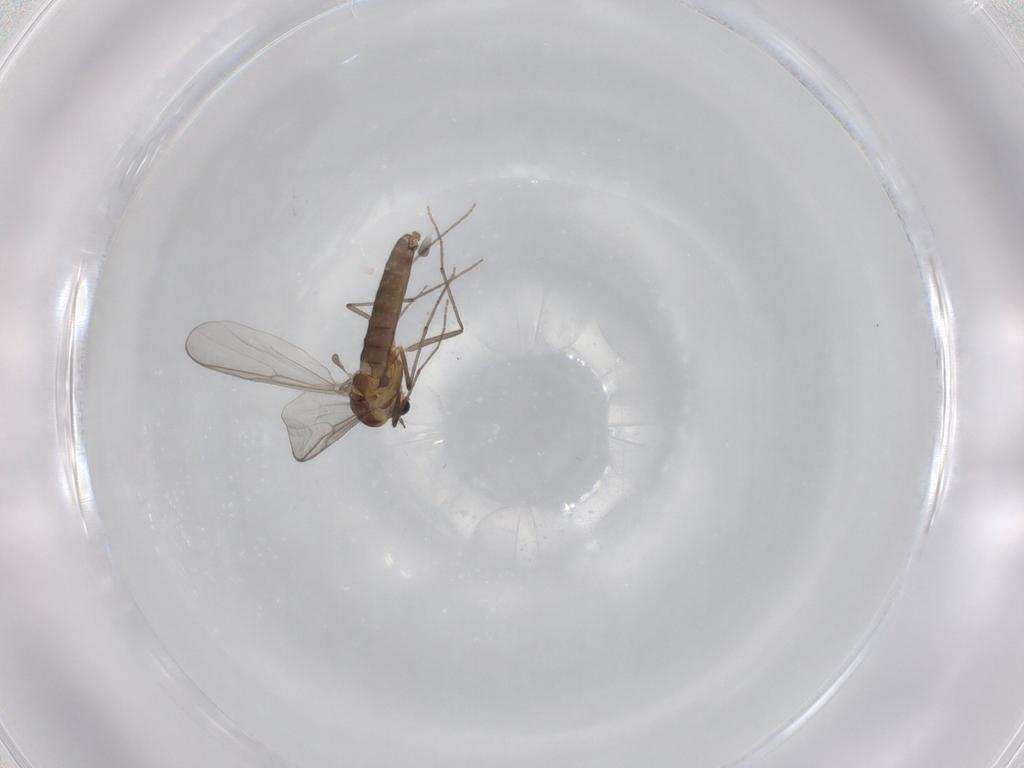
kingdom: Animalia
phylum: Arthropoda
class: Insecta
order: Diptera
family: Chironomidae
